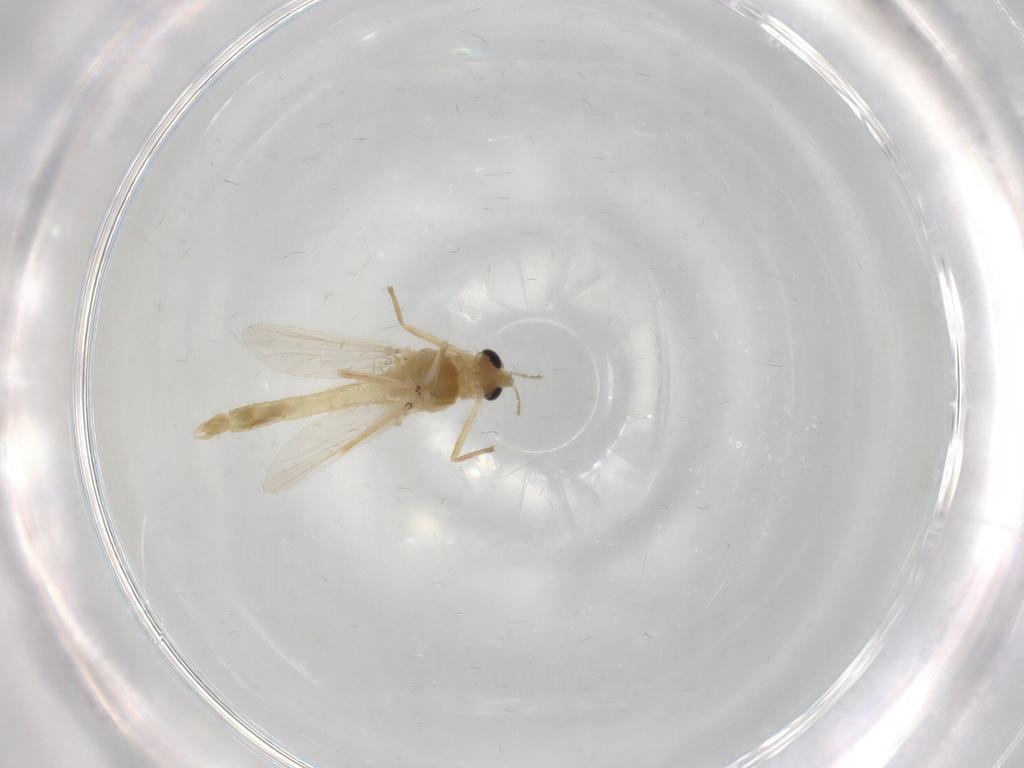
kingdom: Animalia
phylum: Arthropoda
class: Insecta
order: Diptera
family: Chironomidae
